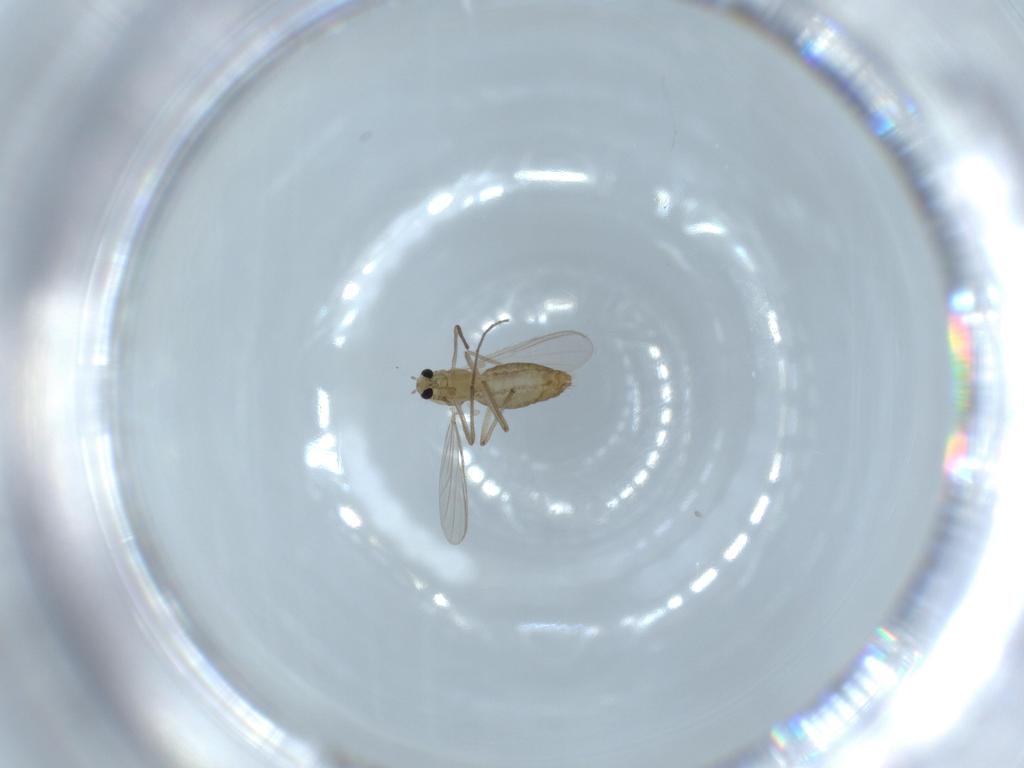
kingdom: Animalia
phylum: Arthropoda
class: Insecta
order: Diptera
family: Chironomidae
